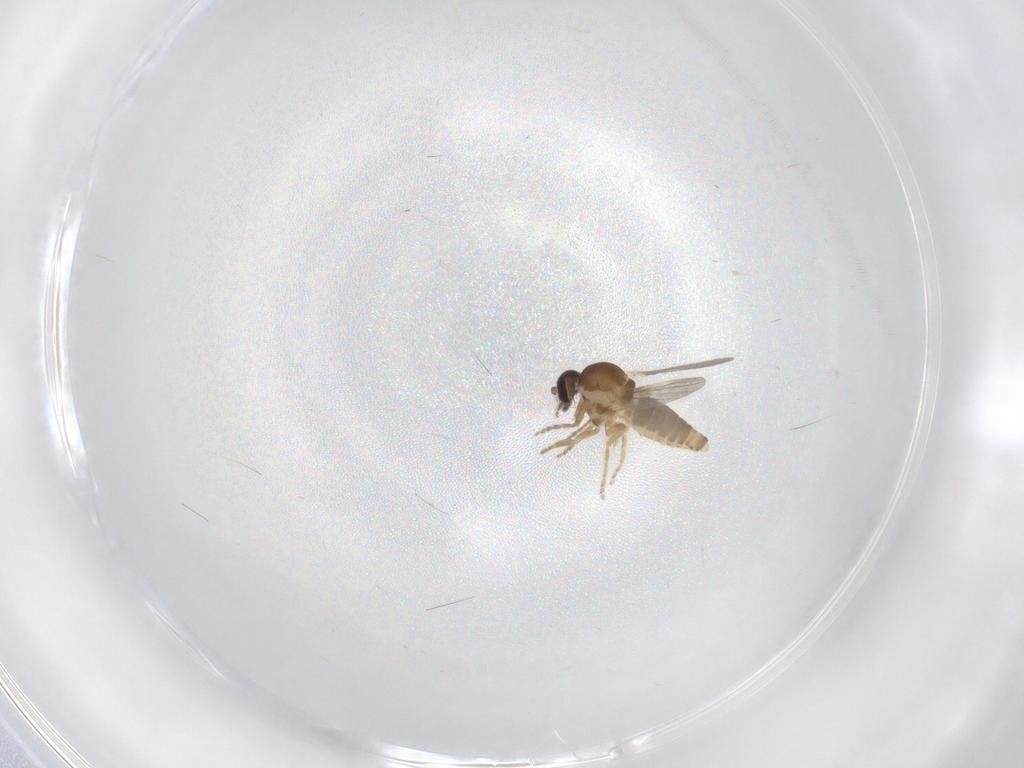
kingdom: Animalia
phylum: Arthropoda
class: Insecta
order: Diptera
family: Ceratopogonidae
